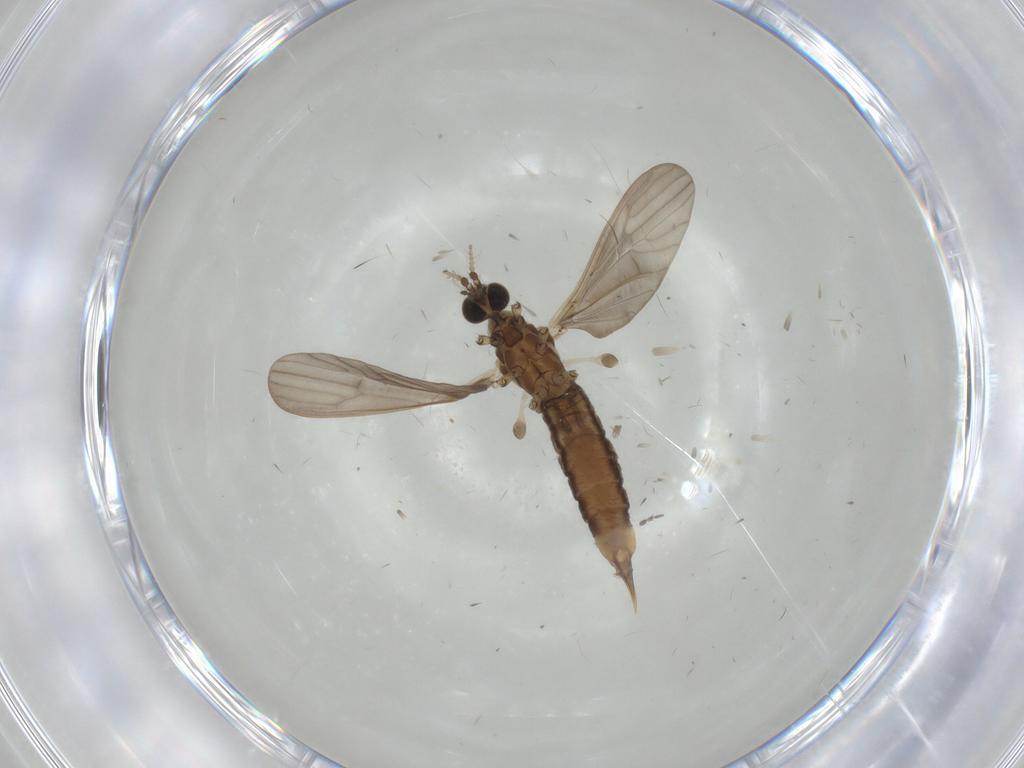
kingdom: Animalia
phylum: Arthropoda
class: Insecta
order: Diptera
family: Limoniidae
